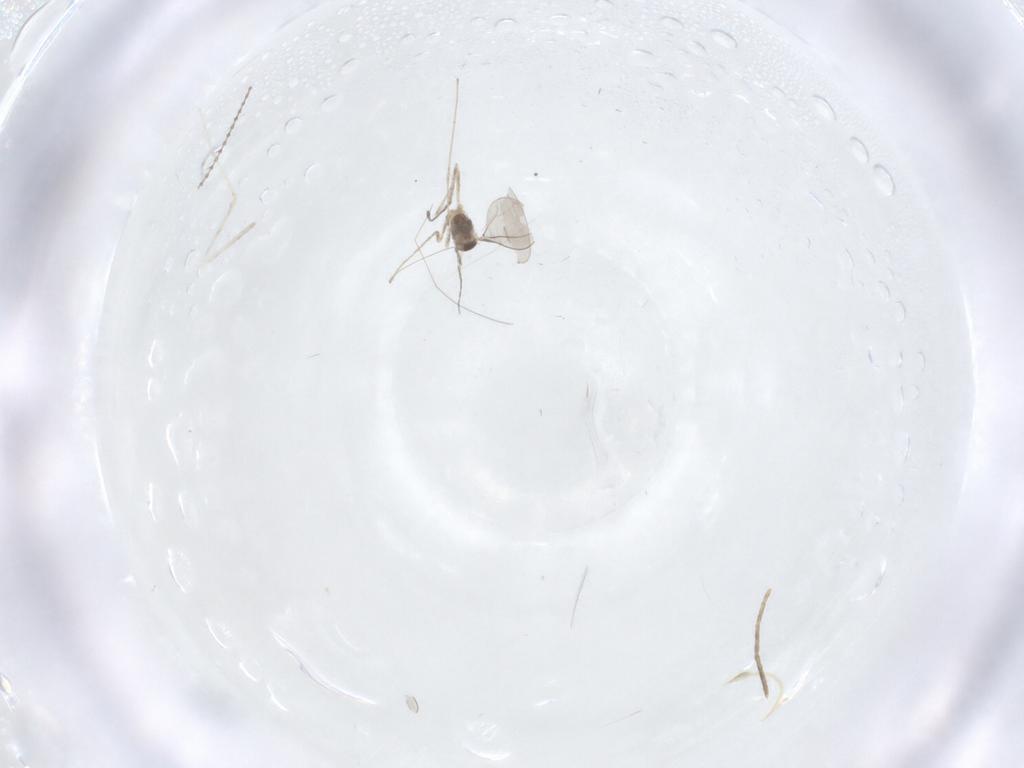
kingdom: Animalia
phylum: Arthropoda
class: Insecta
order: Diptera
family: Cecidomyiidae
